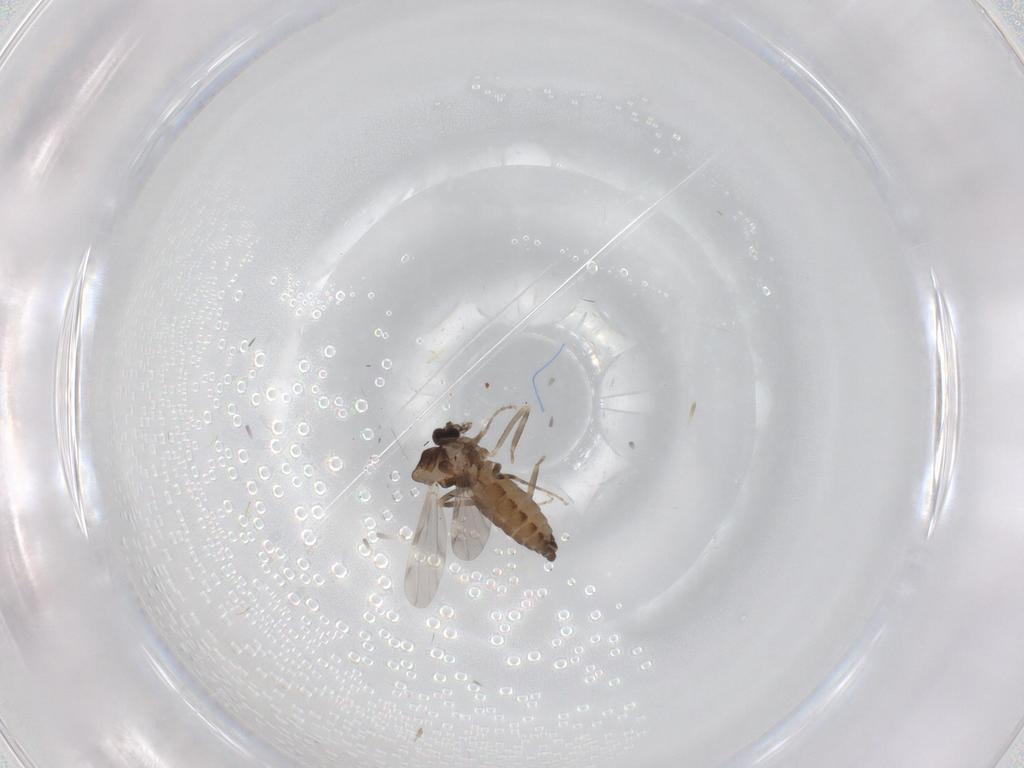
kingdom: Animalia
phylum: Arthropoda
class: Insecta
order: Diptera
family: Ceratopogonidae
